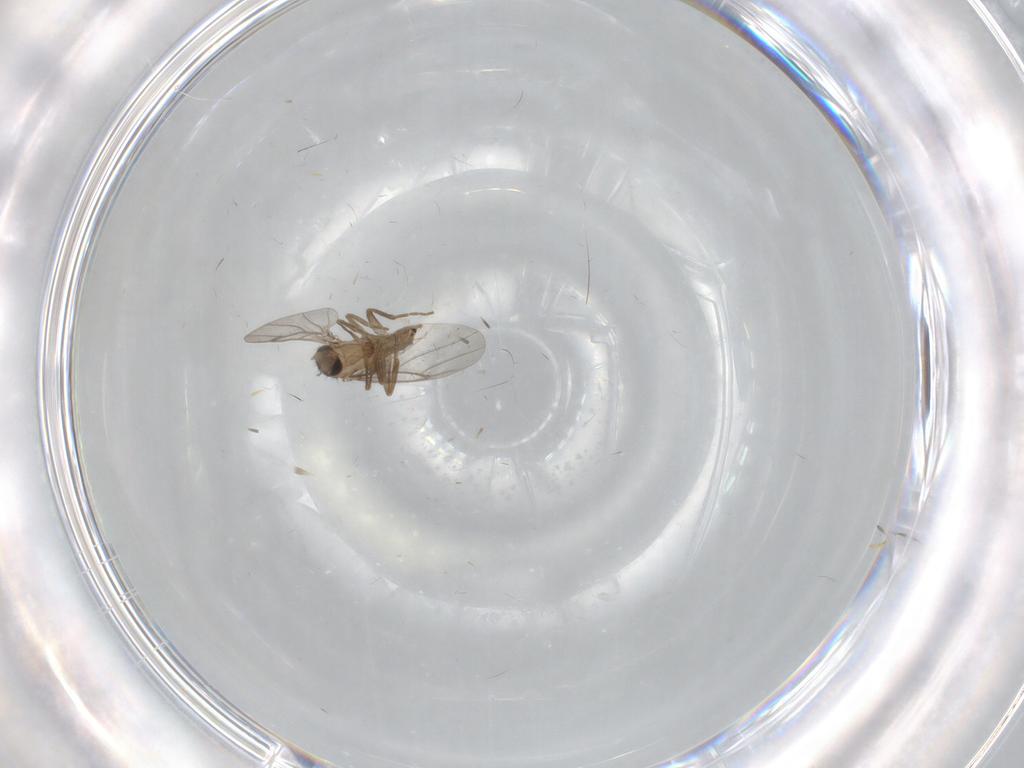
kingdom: Animalia
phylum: Arthropoda
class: Insecta
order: Diptera
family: Sciaridae
